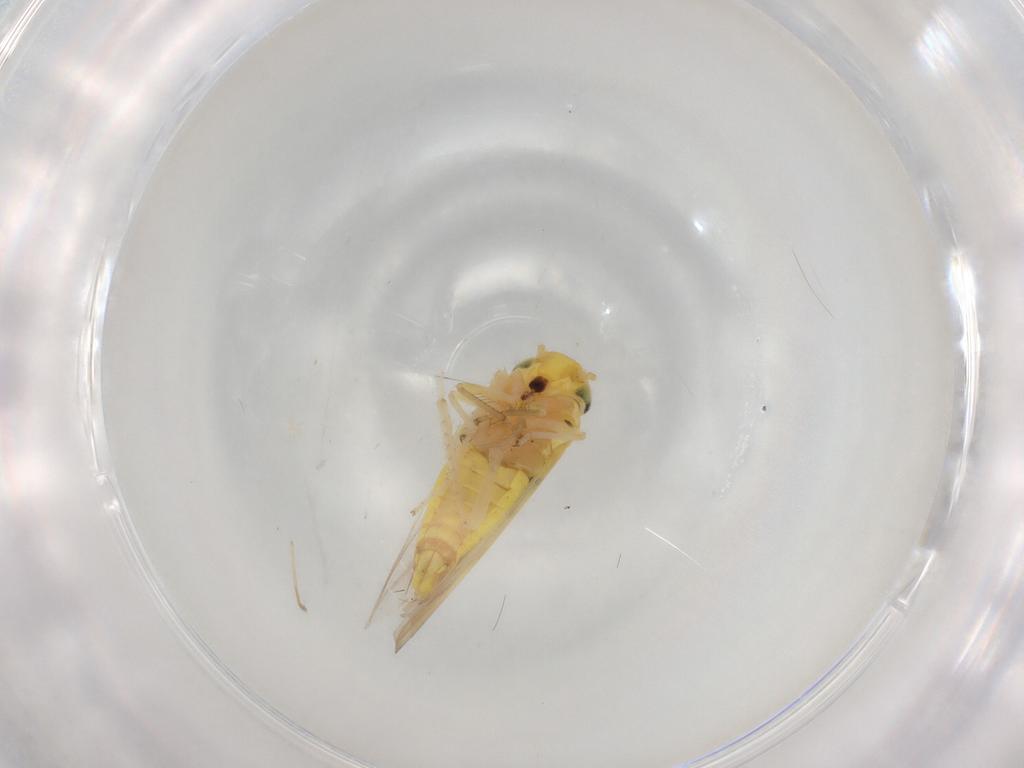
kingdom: Animalia
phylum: Arthropoda
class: Insecta
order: Hemiptera
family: Cicadellidae
